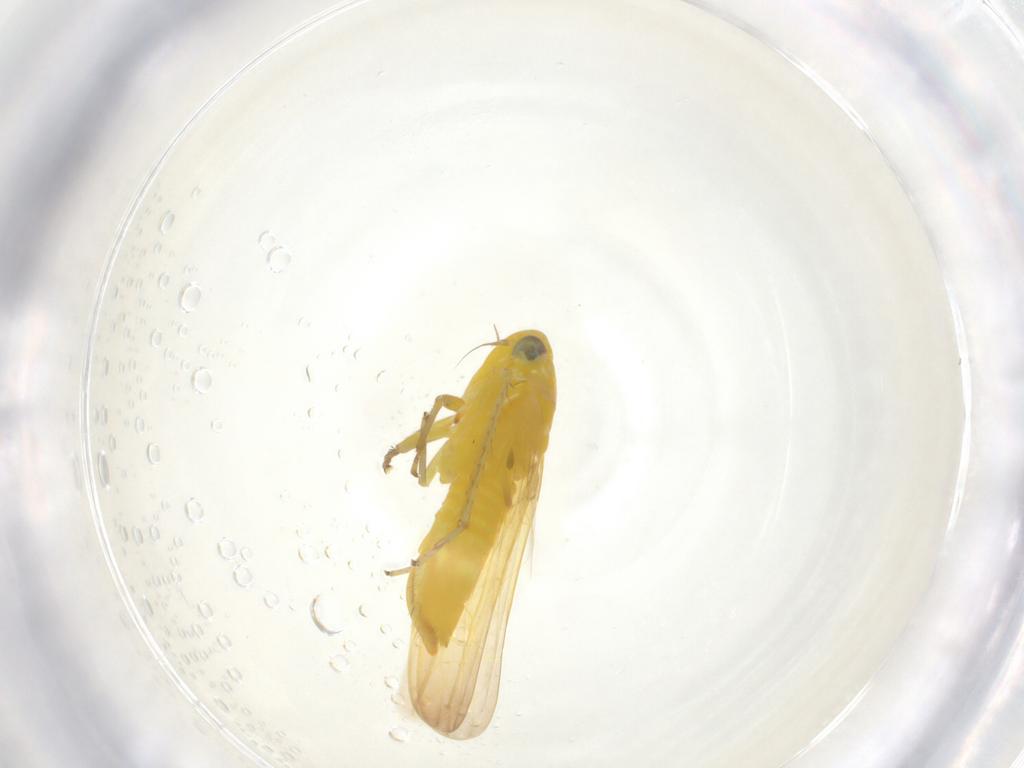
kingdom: Animalia
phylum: Arthropoda
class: Insecta
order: Hemiptera
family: Cicadellidae
